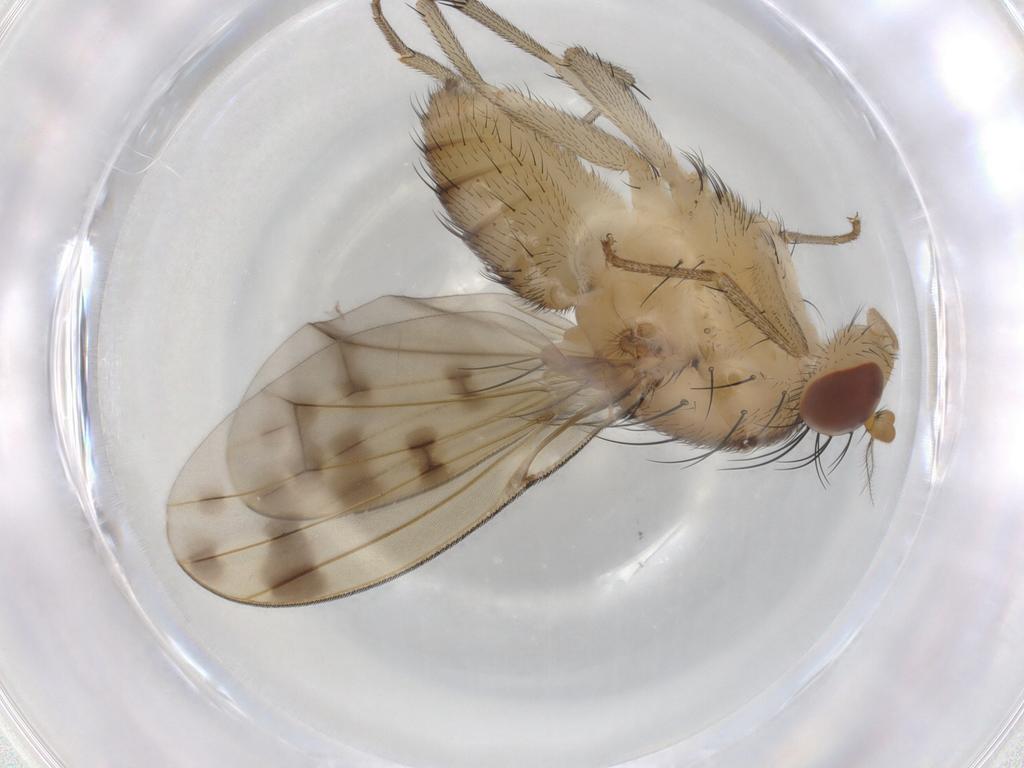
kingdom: Animalia
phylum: Arthropoda
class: Insecta
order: Diptera
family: Lauxaniidae
